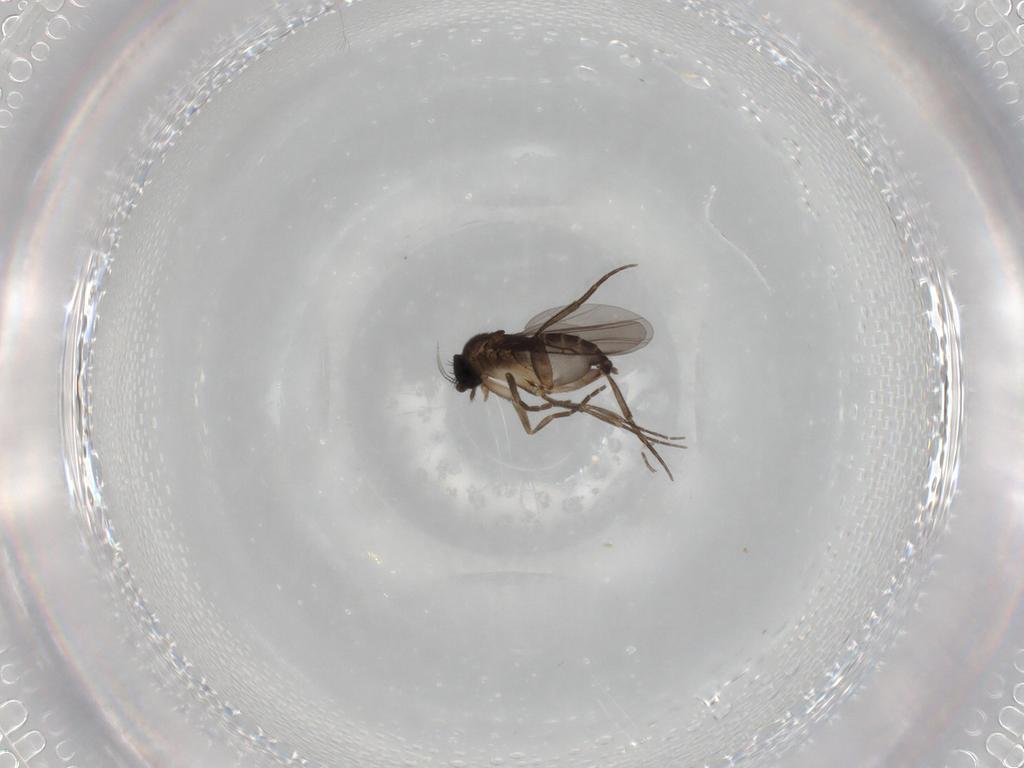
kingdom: Animalia
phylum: Arthropoda
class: Insecta
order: Diptera
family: Phoridae
